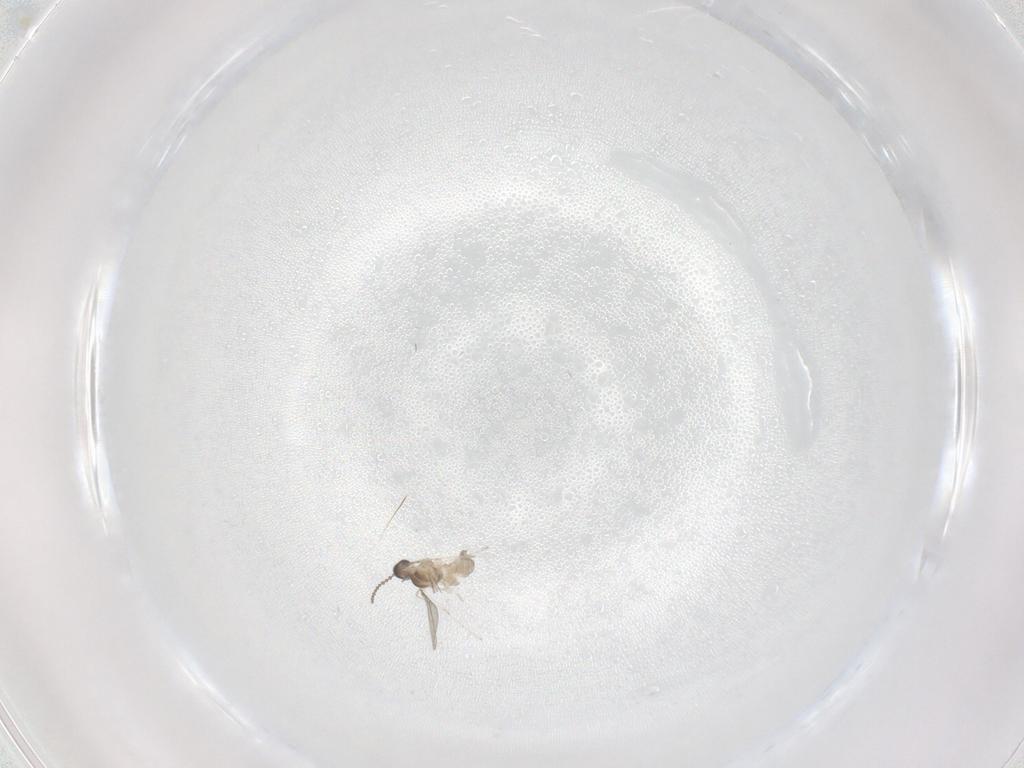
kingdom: Animalia
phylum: Arthropoda
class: Insecta
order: Diptera
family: Cecidomyiidae
